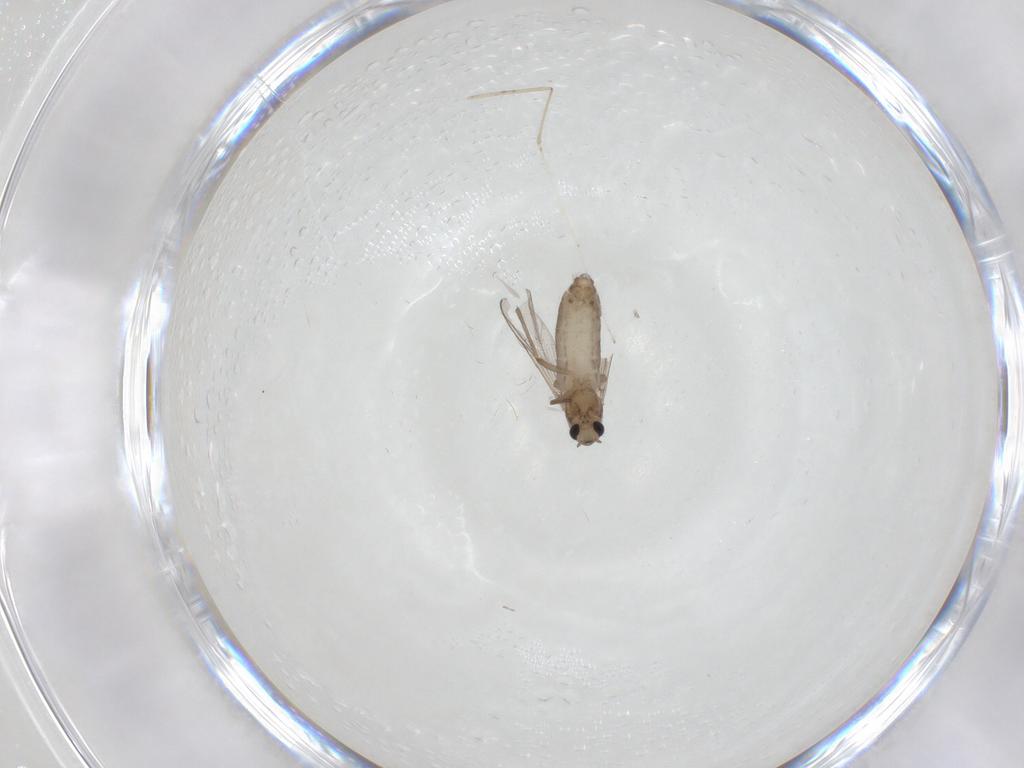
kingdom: Animalia
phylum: Arthropoda
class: Insecta
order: Diptera
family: Chironomidae
